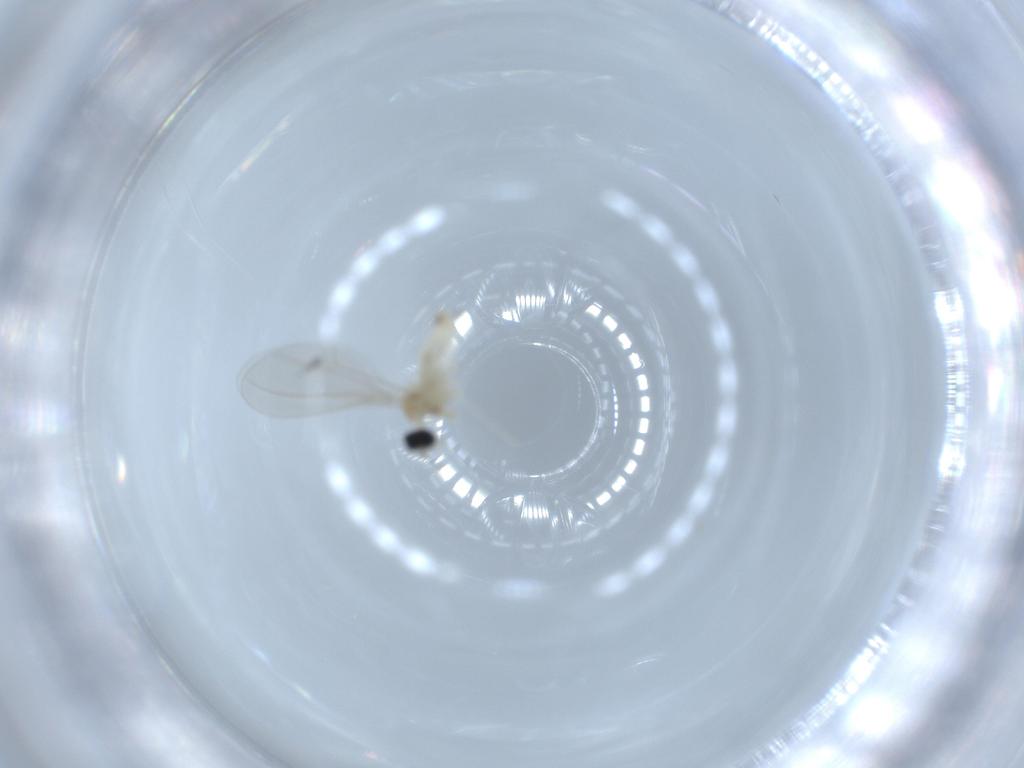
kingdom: Animalia
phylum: Arthropoda
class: Insecta
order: Diptera
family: Cecidomyiidae
